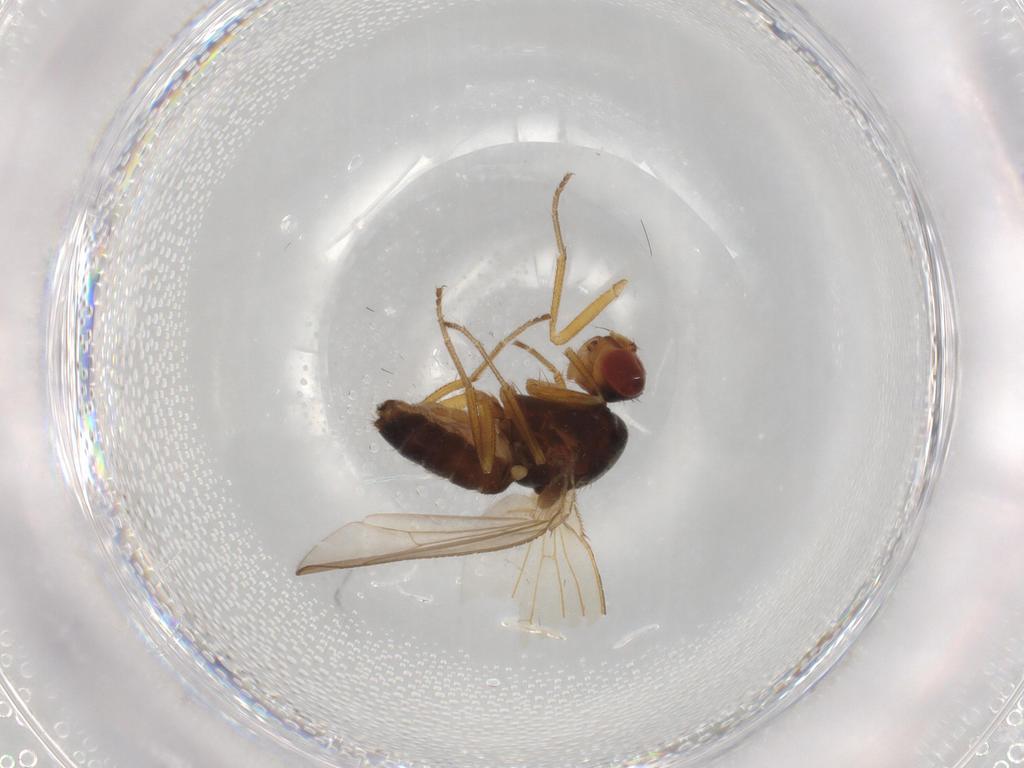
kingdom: Animalia
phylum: Arthropoda
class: Insecta
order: Diptera
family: Drosophilidae
